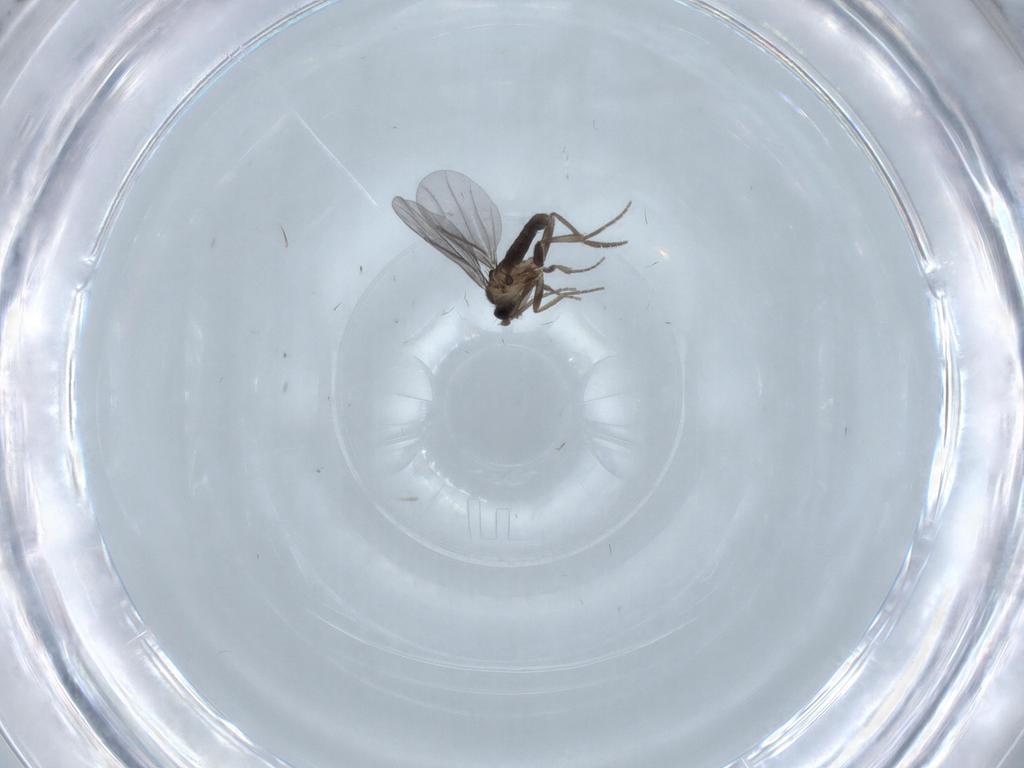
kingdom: Animalia
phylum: Arthropoda
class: Insecta
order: Diptera
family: Phoridae
